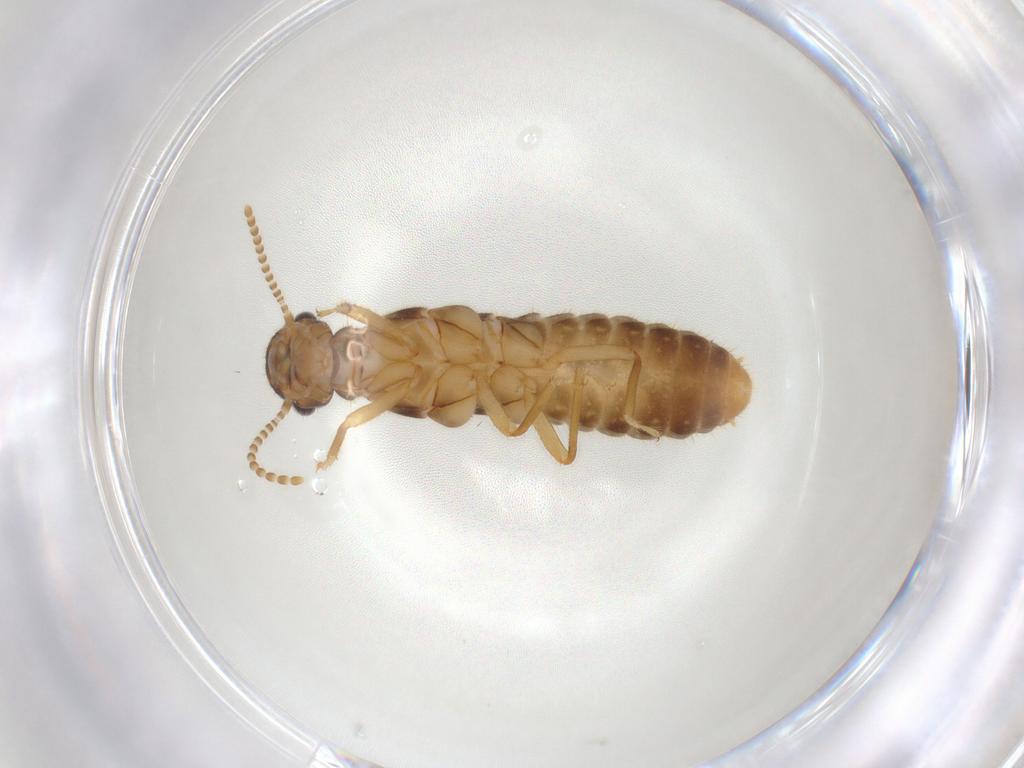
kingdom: Animalia
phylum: Arthropoda
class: Insecta
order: Blattodea
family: Termitidae
